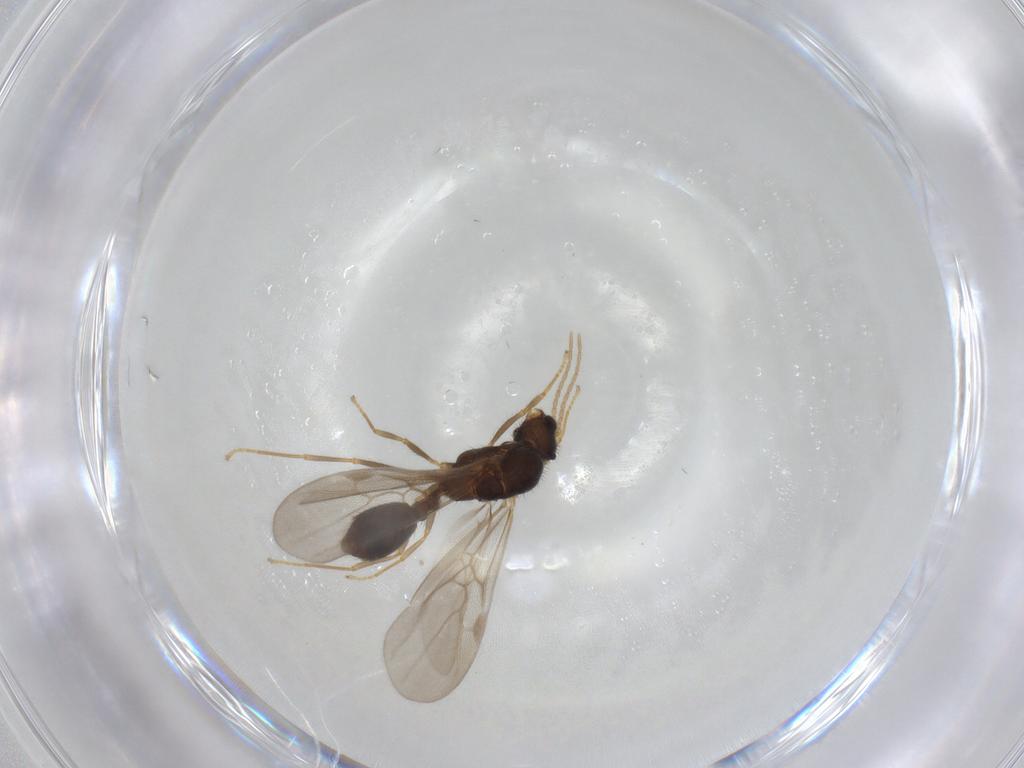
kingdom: Animalia
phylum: Arthropoda
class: Insecta
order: Hymenoptera
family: Formicidae
